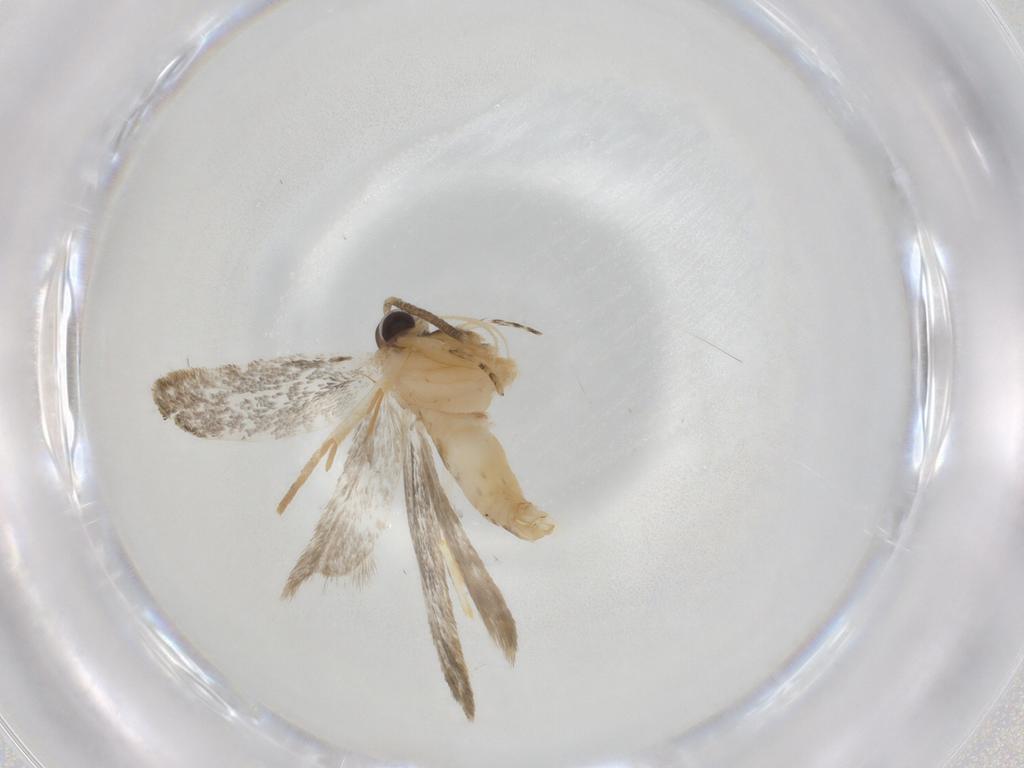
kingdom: Animalia
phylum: Arthropoda
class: Insecta
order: Lepidoptera
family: Autostichidae
